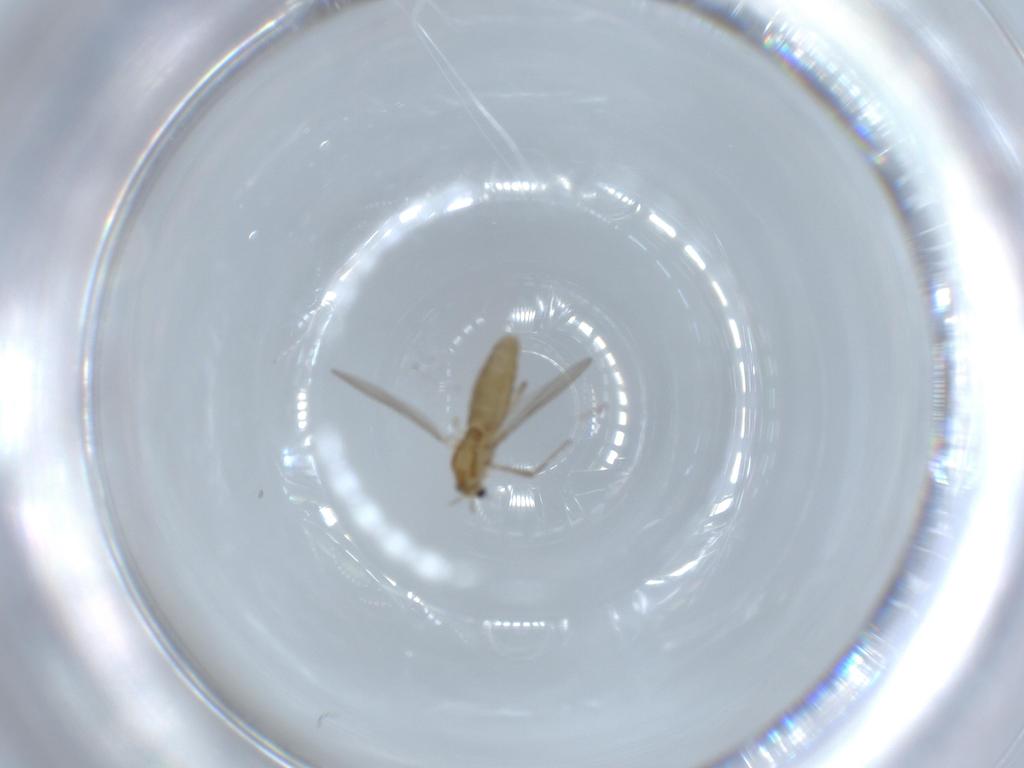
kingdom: Animalia
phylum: Arthropoda
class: Insecta
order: Diptera
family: Chironomidae
